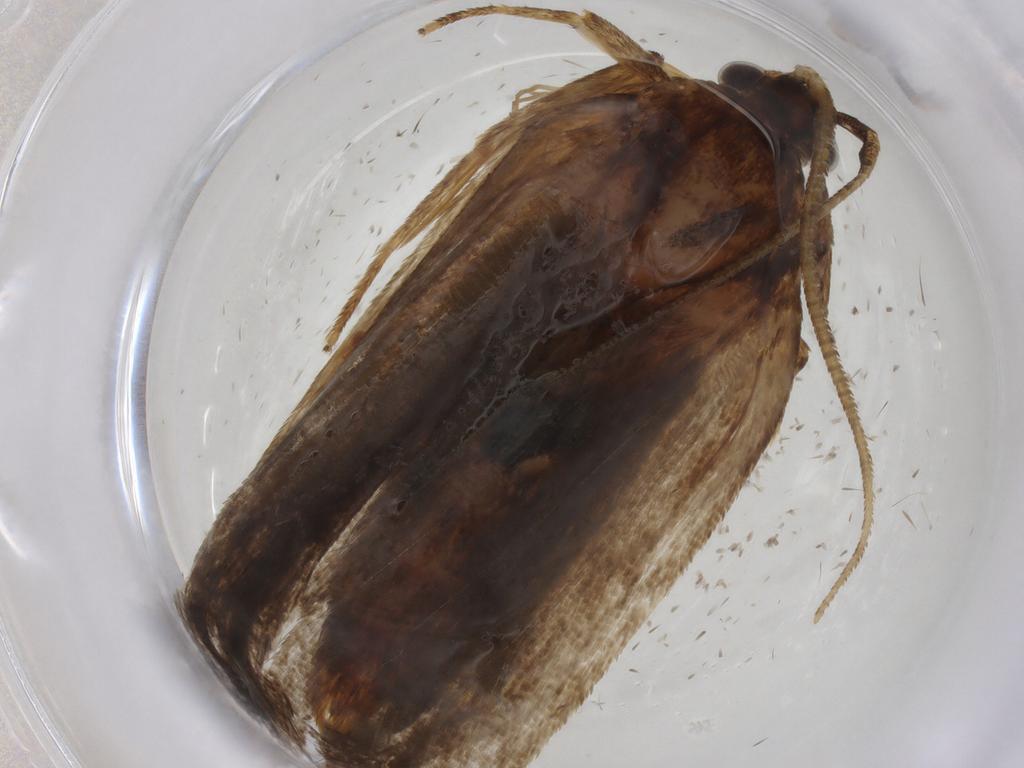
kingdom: Animalia
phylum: Arthropoda
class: Insecta
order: Lepidoptera
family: Autostichidae
